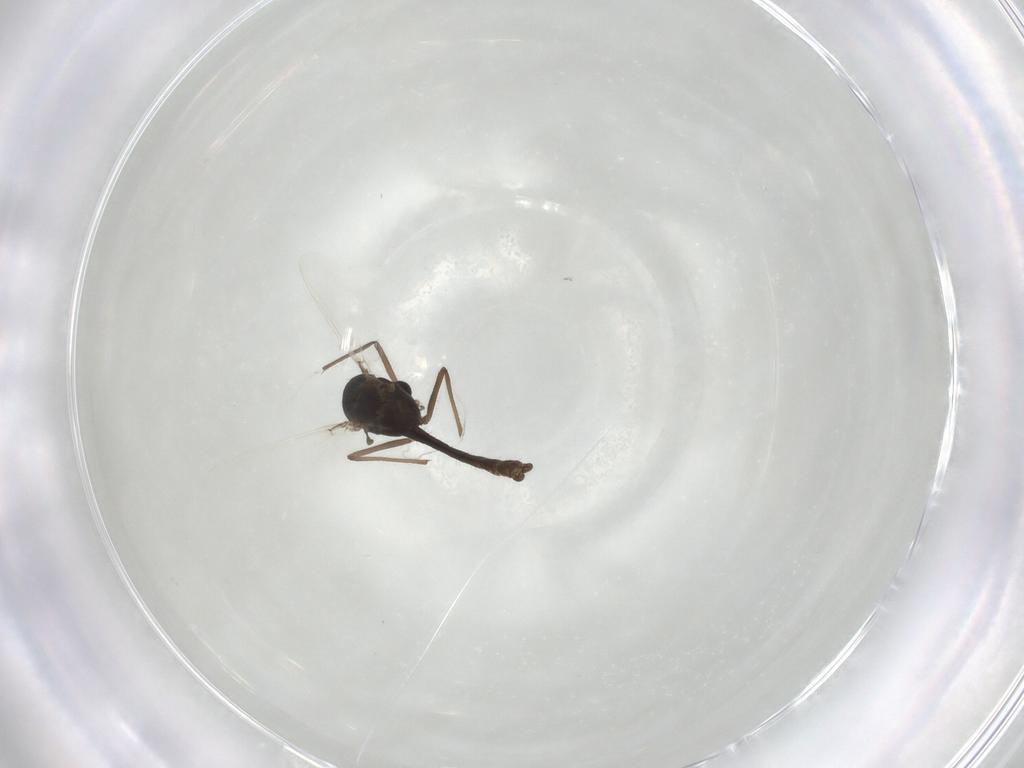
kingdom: Animalia
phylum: Arthropoda
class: Insecta
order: Diptera
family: Chironomidae
